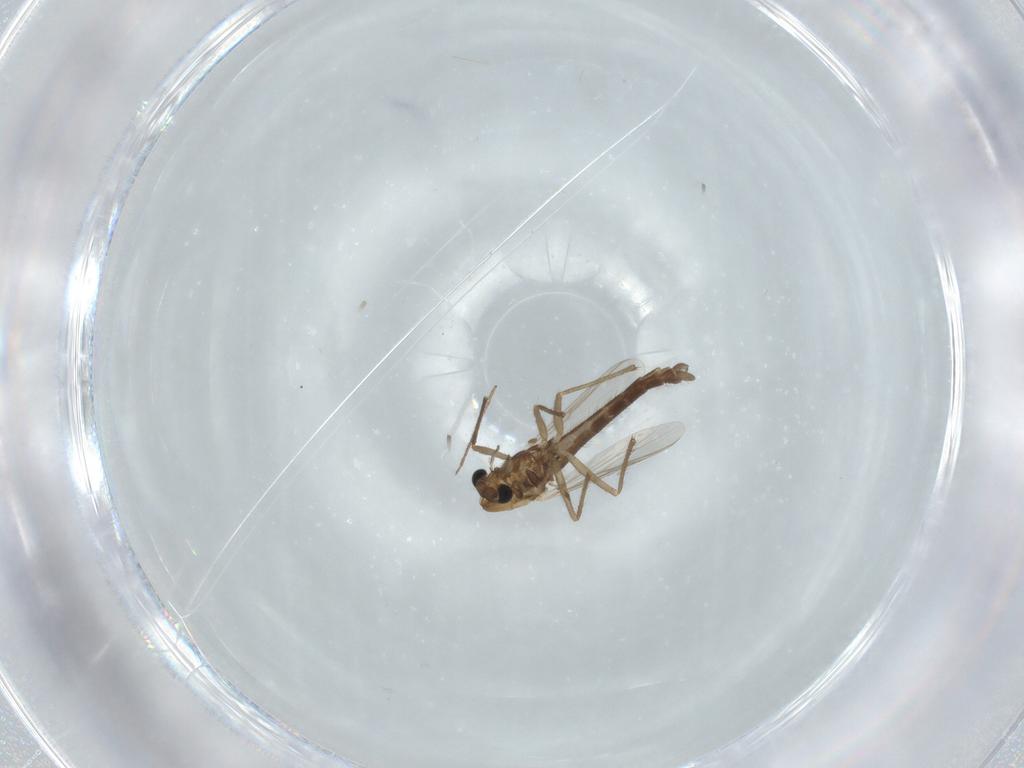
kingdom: Animalia
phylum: Arthropoda
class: Insecta
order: Diptera
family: Chironomidae
